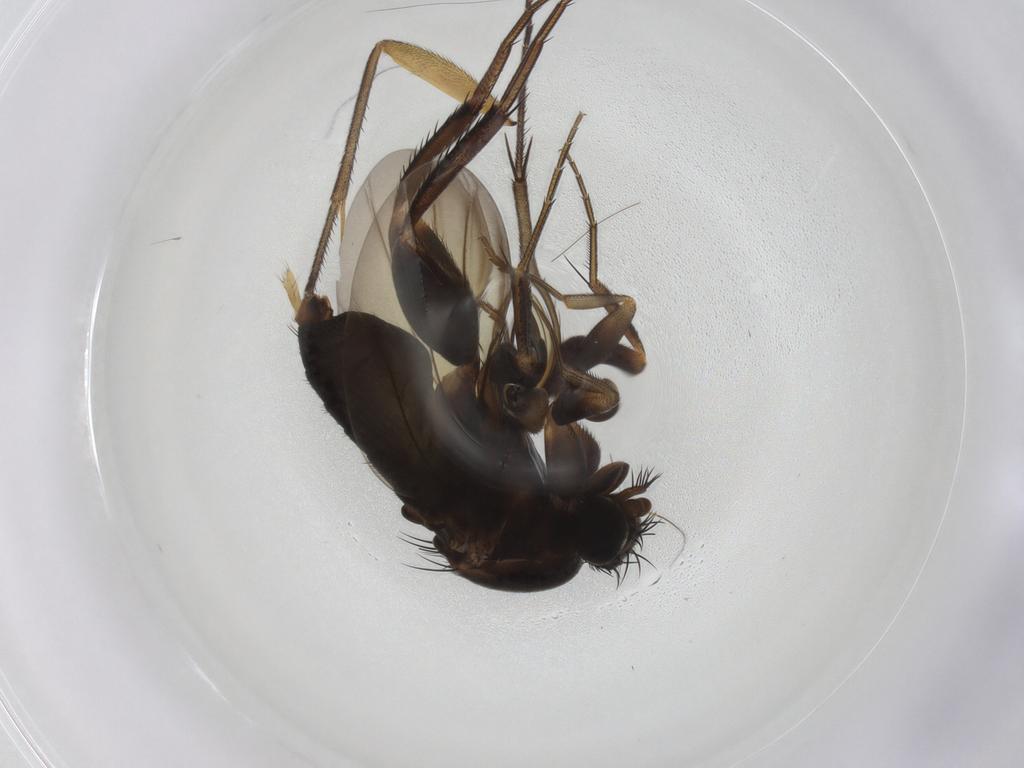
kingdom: Animalia
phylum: Arthropoda
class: Insecta
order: Diptera
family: Phoridae
